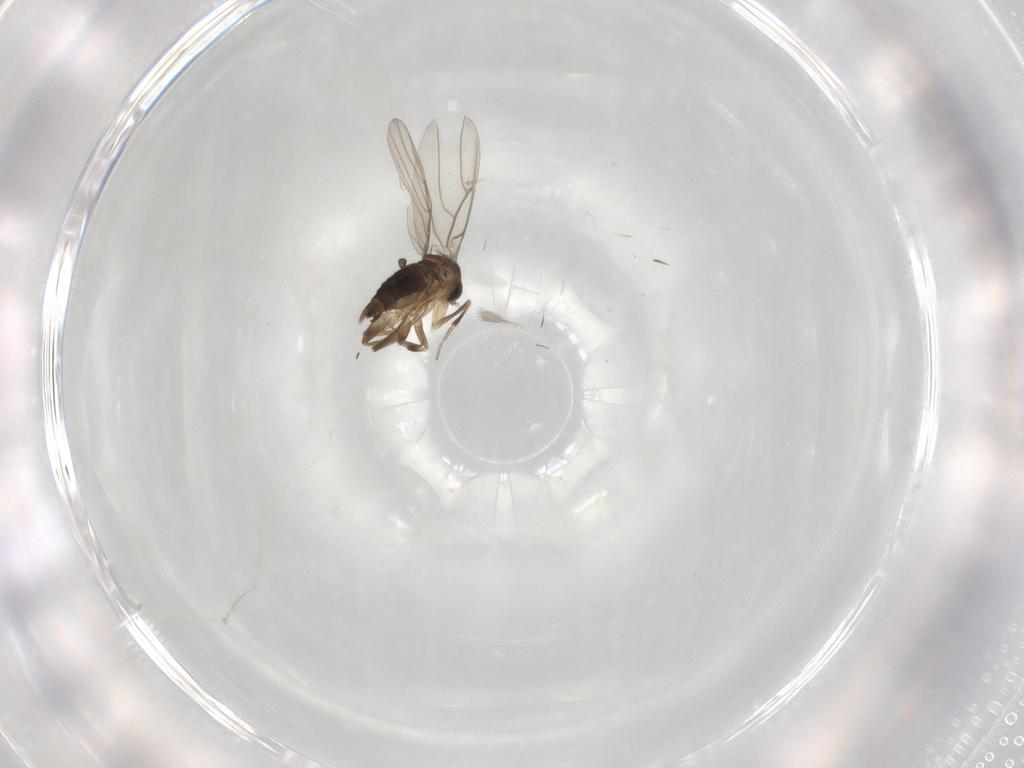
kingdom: Animalia
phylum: Arthropoda
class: Insecta
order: Diptera
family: Phoridae
